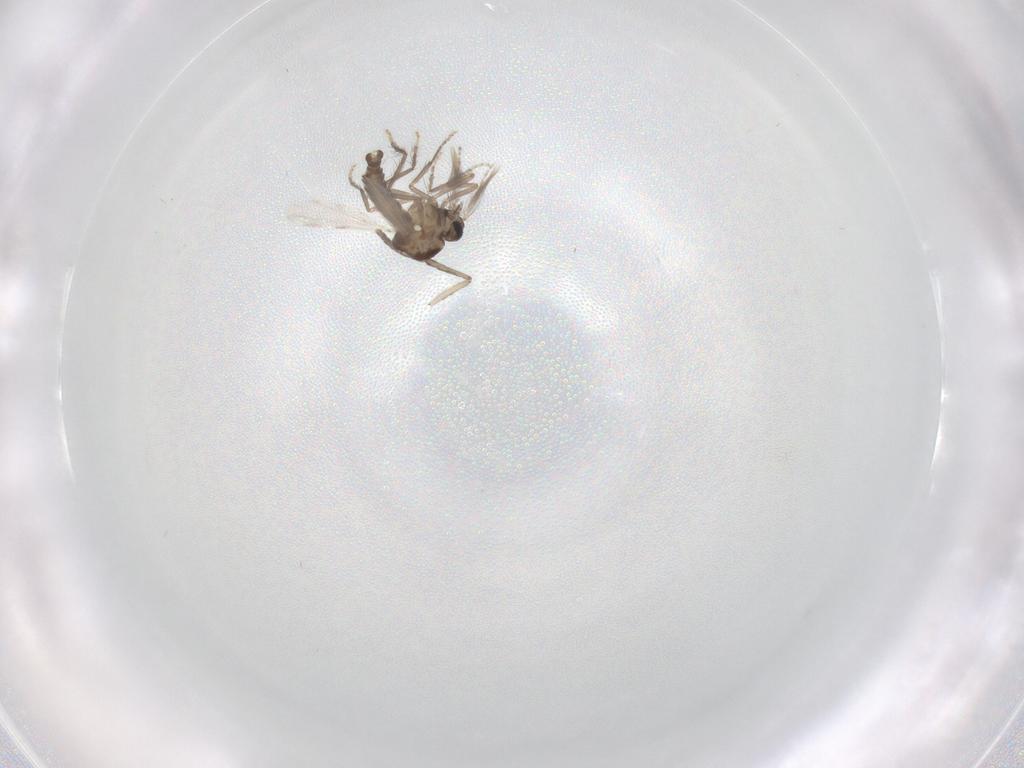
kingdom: Animalia
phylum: Arthropoda
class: Insecta
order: Diptera
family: Ceratopogonidae
